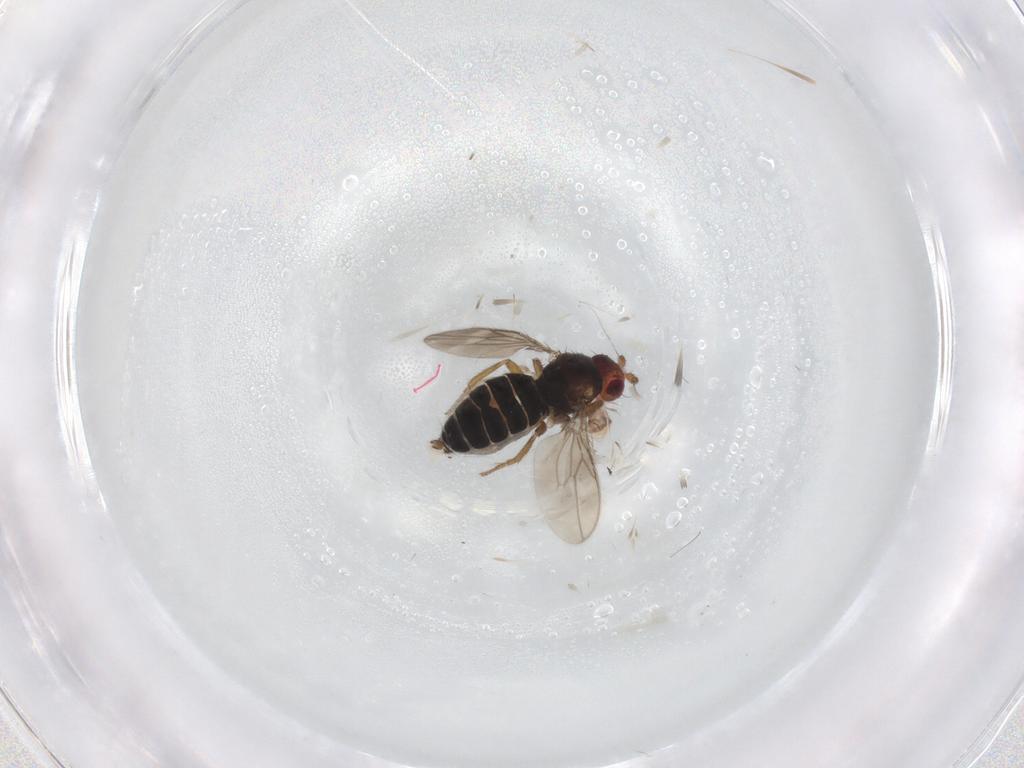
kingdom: Animalia
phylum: Arthropoda
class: Insecta
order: Diptera
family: Sphaeroceridae
